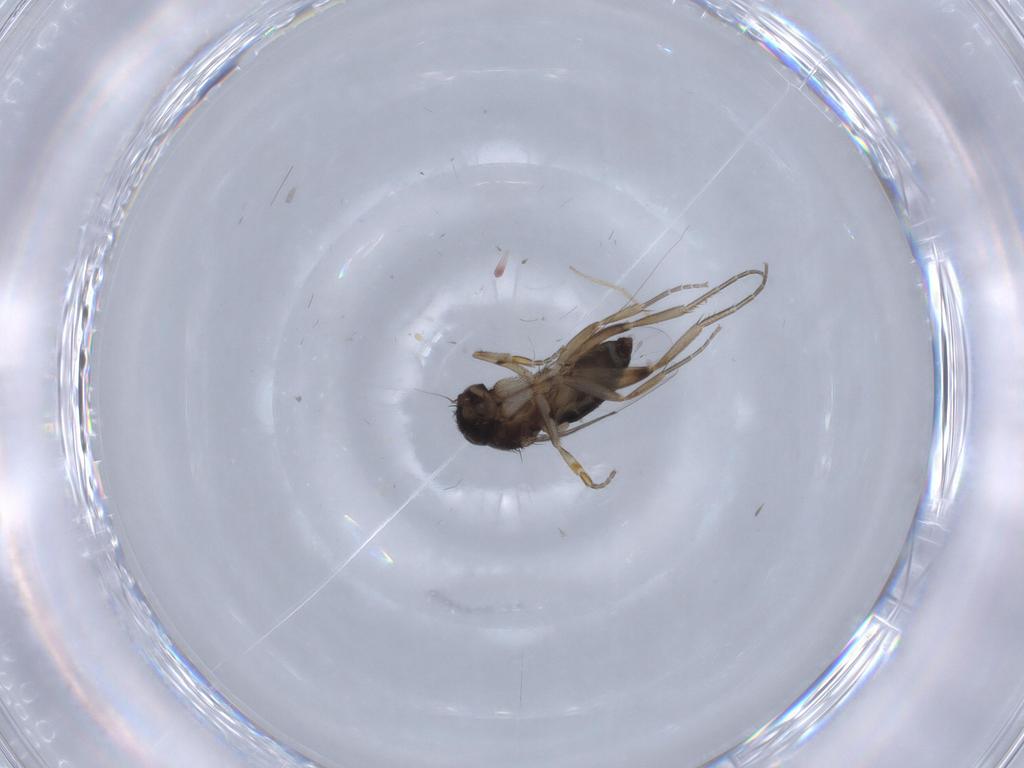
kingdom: Animalia
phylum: Arthropoda
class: Insecta
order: Diptera
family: Phoridae
